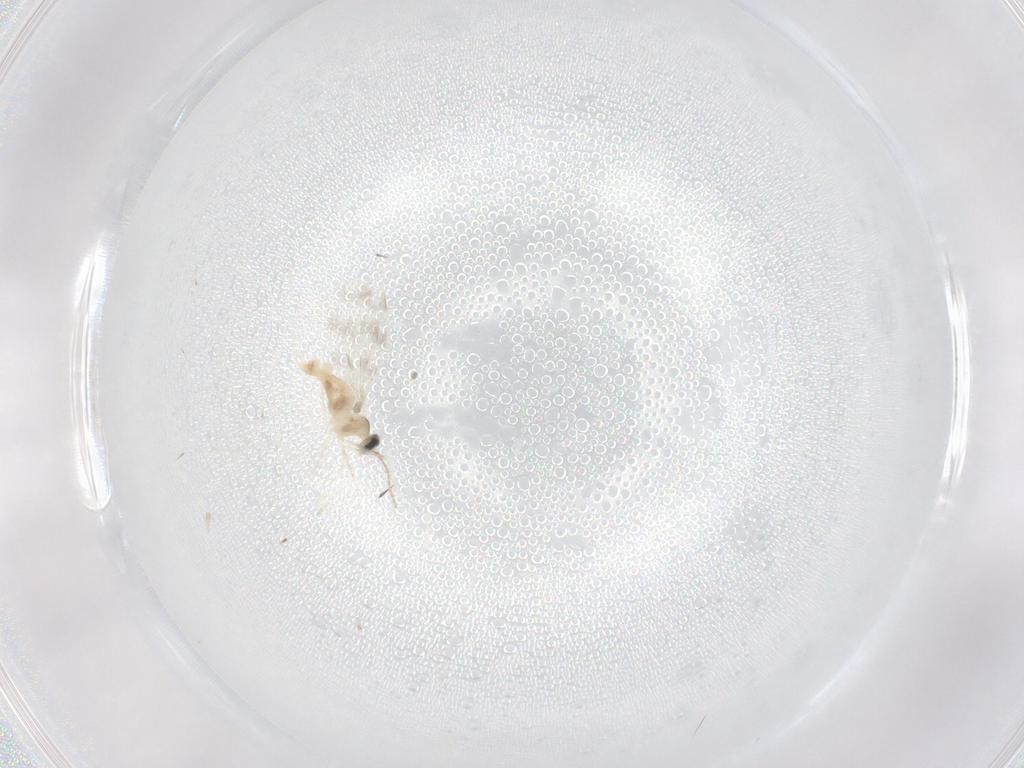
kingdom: Animalia
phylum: Arthropoda
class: Insecta
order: Diptera
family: Cecidomyiidae
